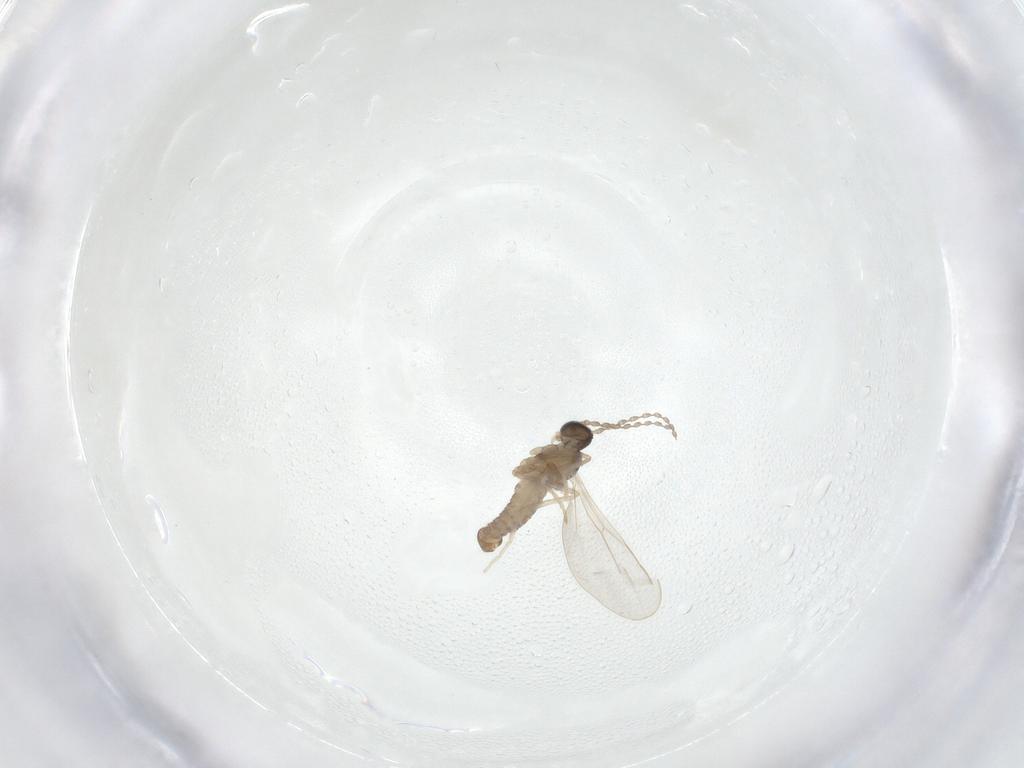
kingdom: Animalia
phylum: Arthropoda
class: Insecta
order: Diptera
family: Cecidomyiidae
